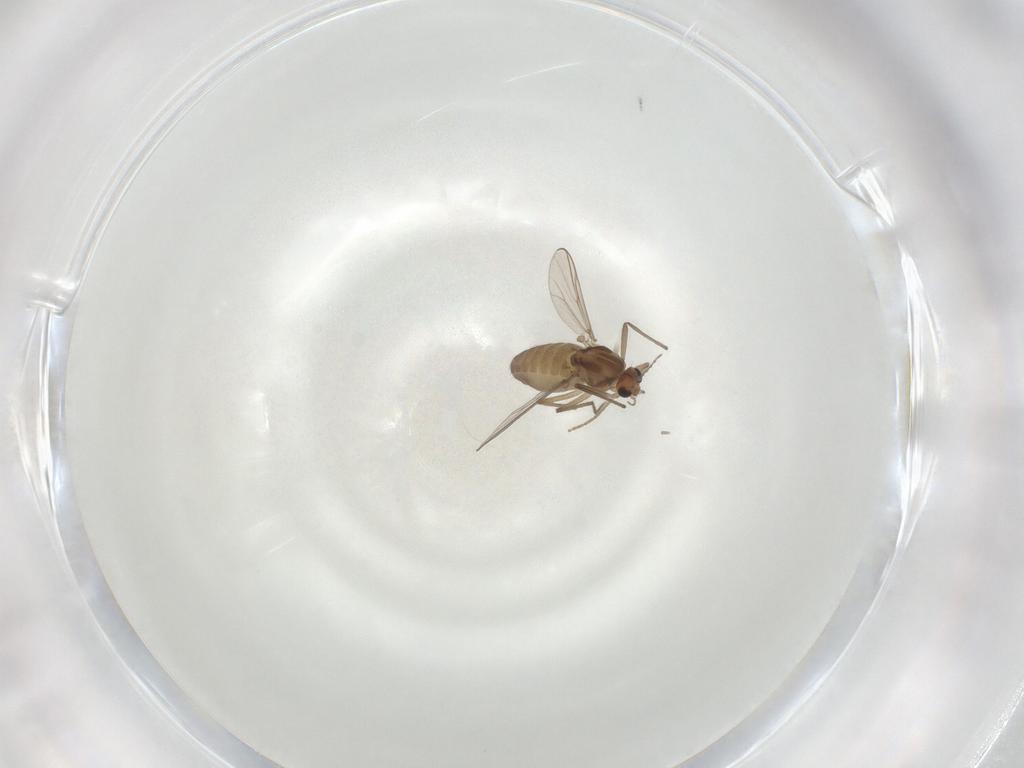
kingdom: Animalia
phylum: Arthropoda
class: Insecta
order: Diptera
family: Chironomidae
